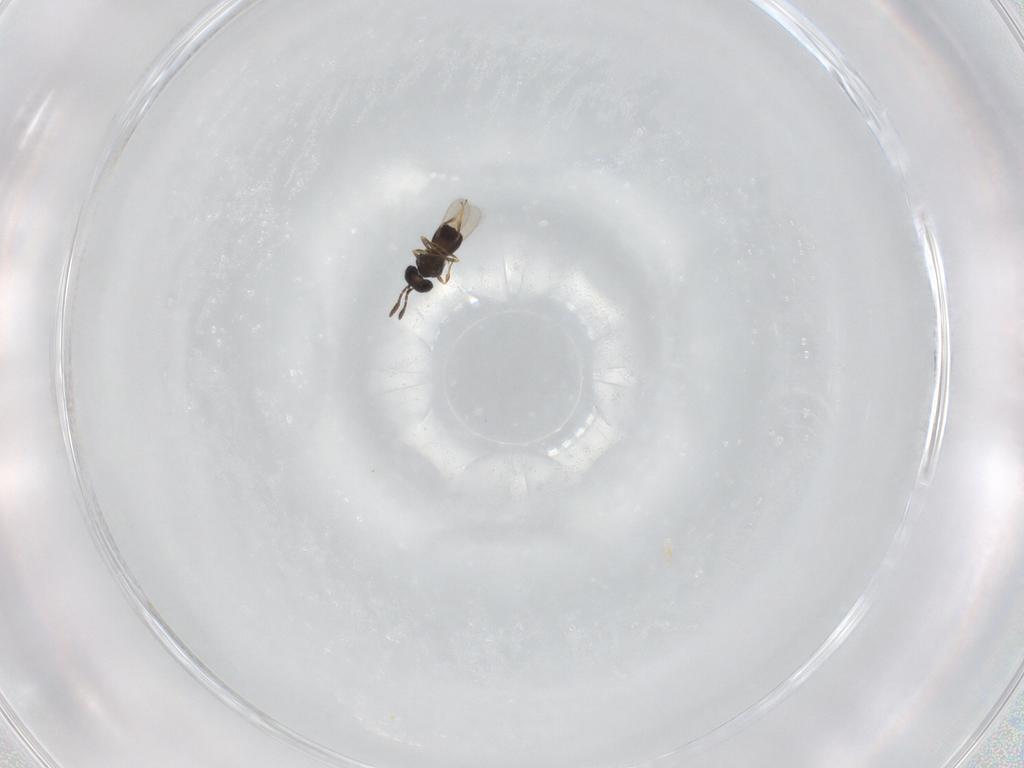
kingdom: Animalia
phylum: Arthropoda
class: Insecta
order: Hymenoptera
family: Scelionidae
